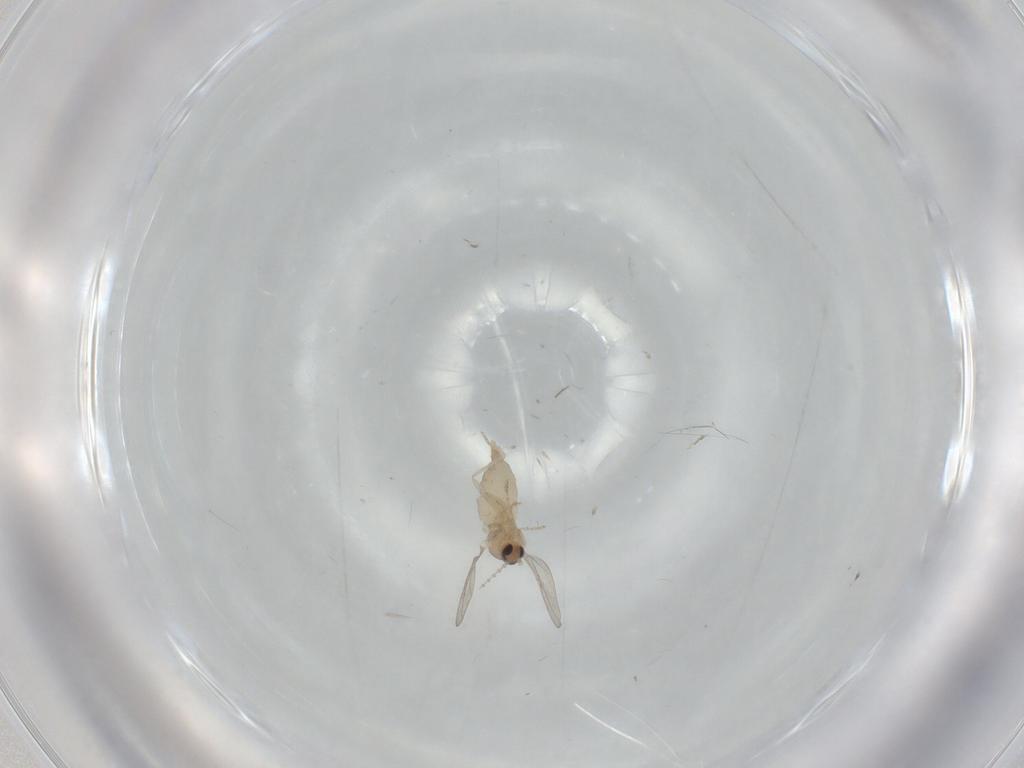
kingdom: Animalia
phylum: Arthropoda
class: Insecta
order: Diptera
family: Cecidomyiidae
